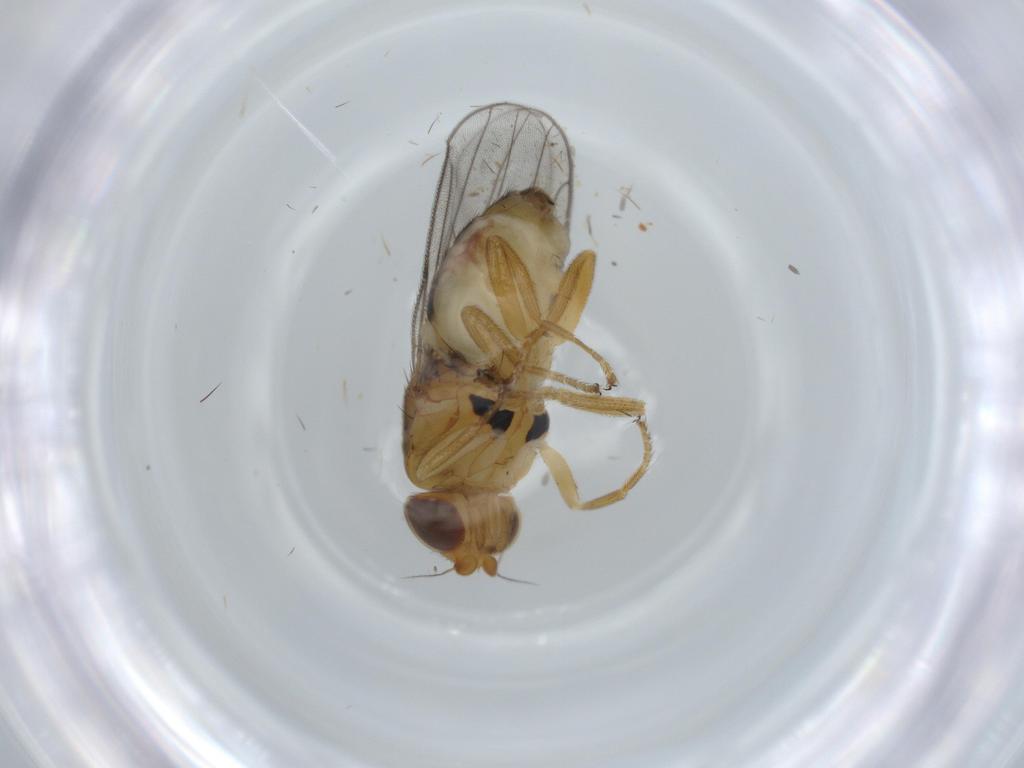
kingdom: Animalia
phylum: Arthropoda
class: Insecta
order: Diptera
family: Chloropidae
